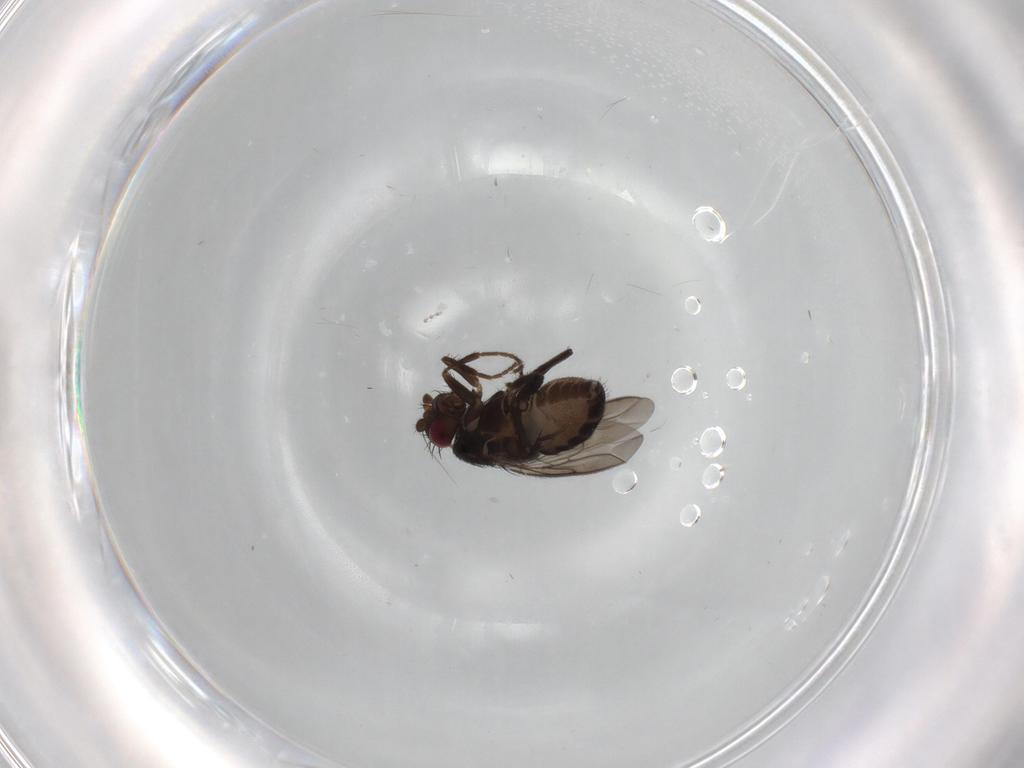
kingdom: Animalia
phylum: Arthropoda
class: Insecta
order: Diptera
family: Sphaeroceridae
